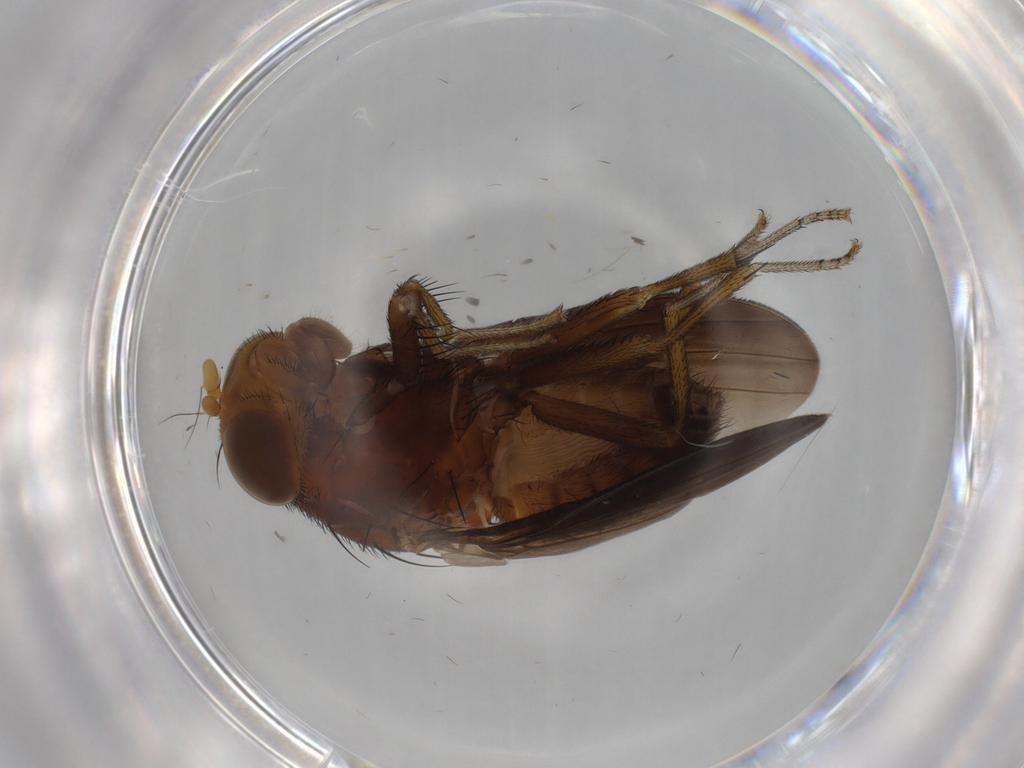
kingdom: Animalia
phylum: Arthropoda
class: Insecta
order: Diptera
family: Lauxaniidae
